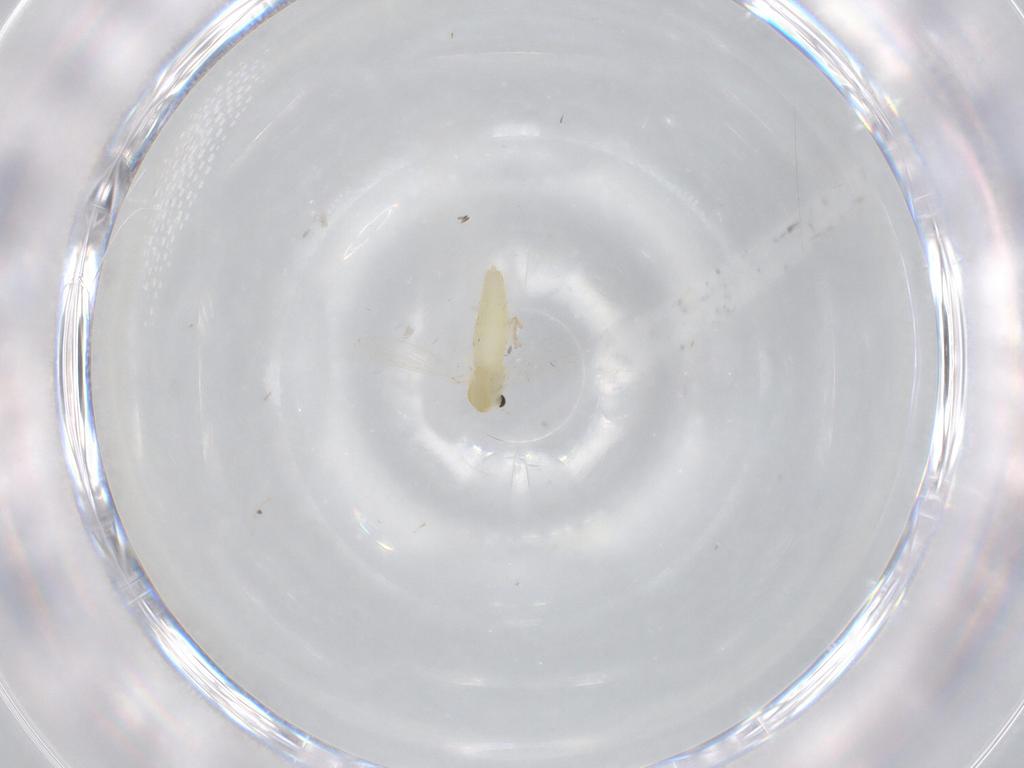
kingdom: Animalia
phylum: Arthropoda
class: Insecta
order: Diptera
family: Chironomidae
